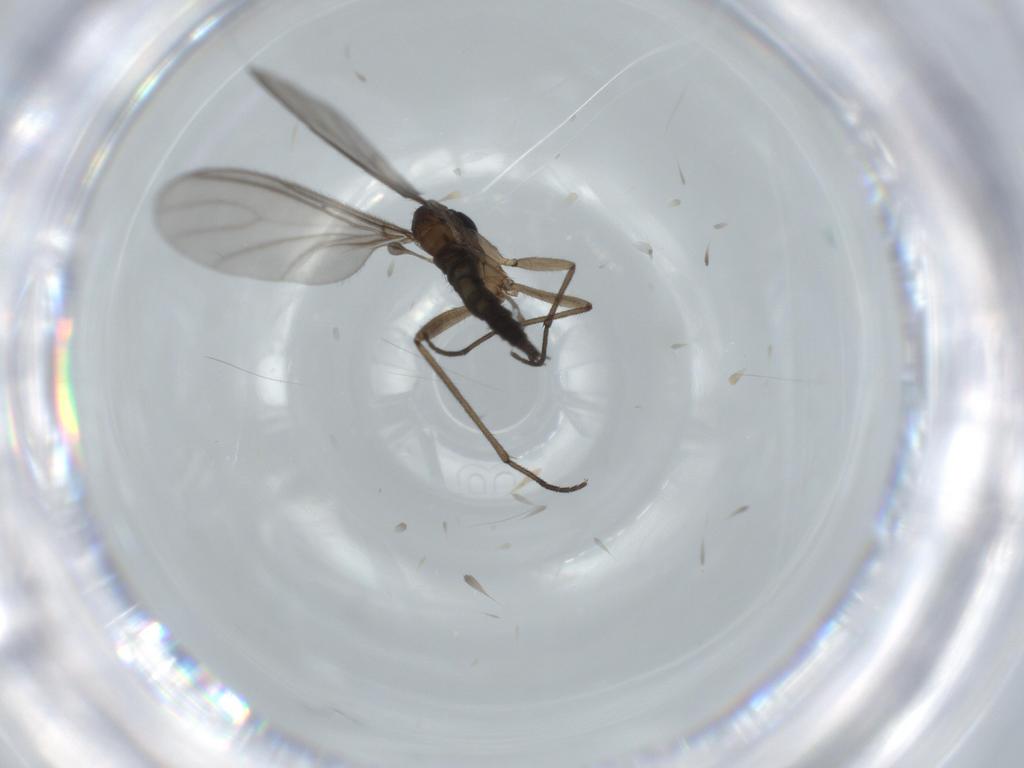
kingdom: Animalia
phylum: Arthropoda
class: Insecta
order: Diptera
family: Sciaridae
